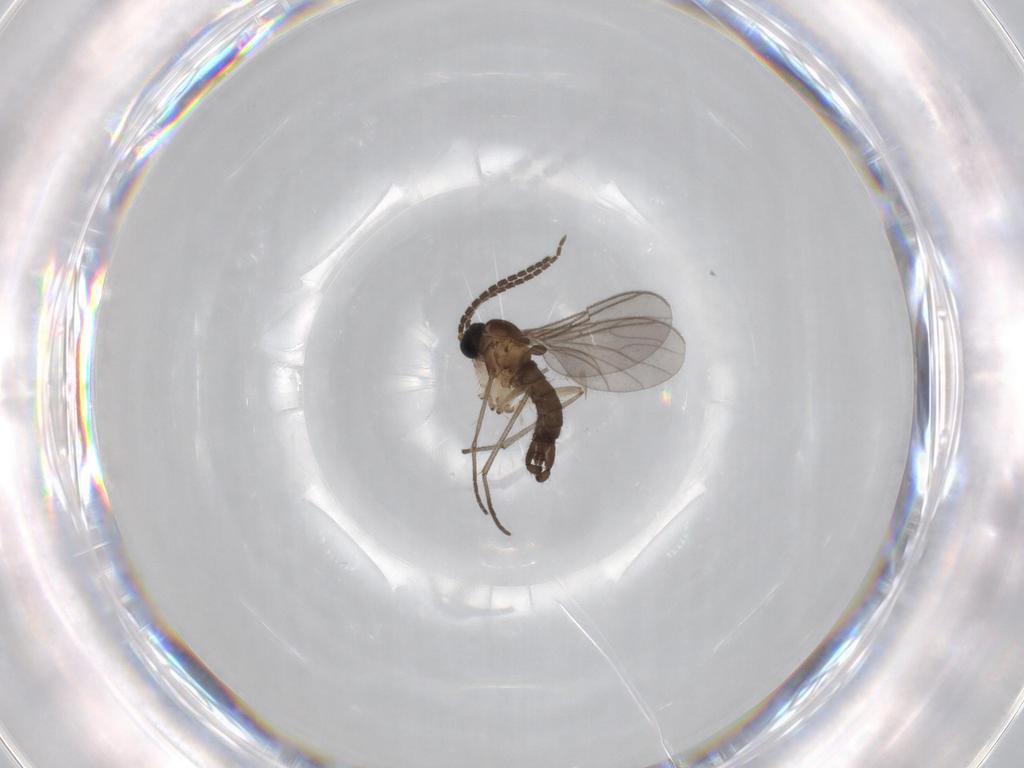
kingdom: Animalia
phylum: Arthropoda
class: Insecta
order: Diptera
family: Sciaridae
